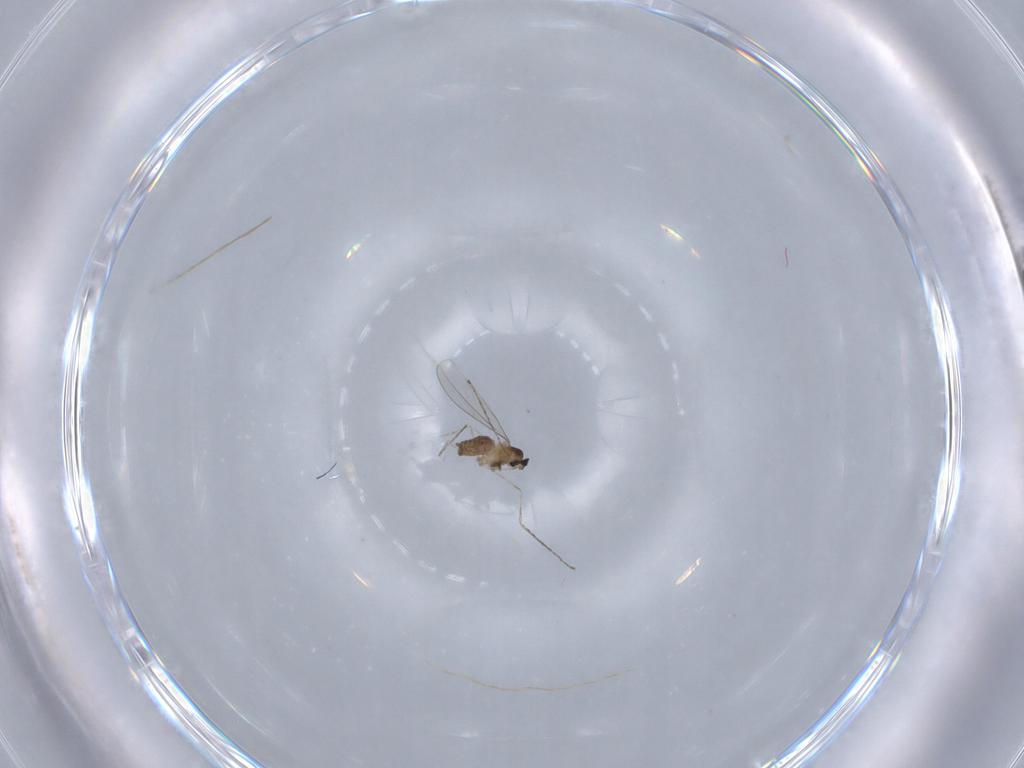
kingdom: Animalia
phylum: Arthropoda
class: Insecta
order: Diptera
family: Cecidomyiidae
